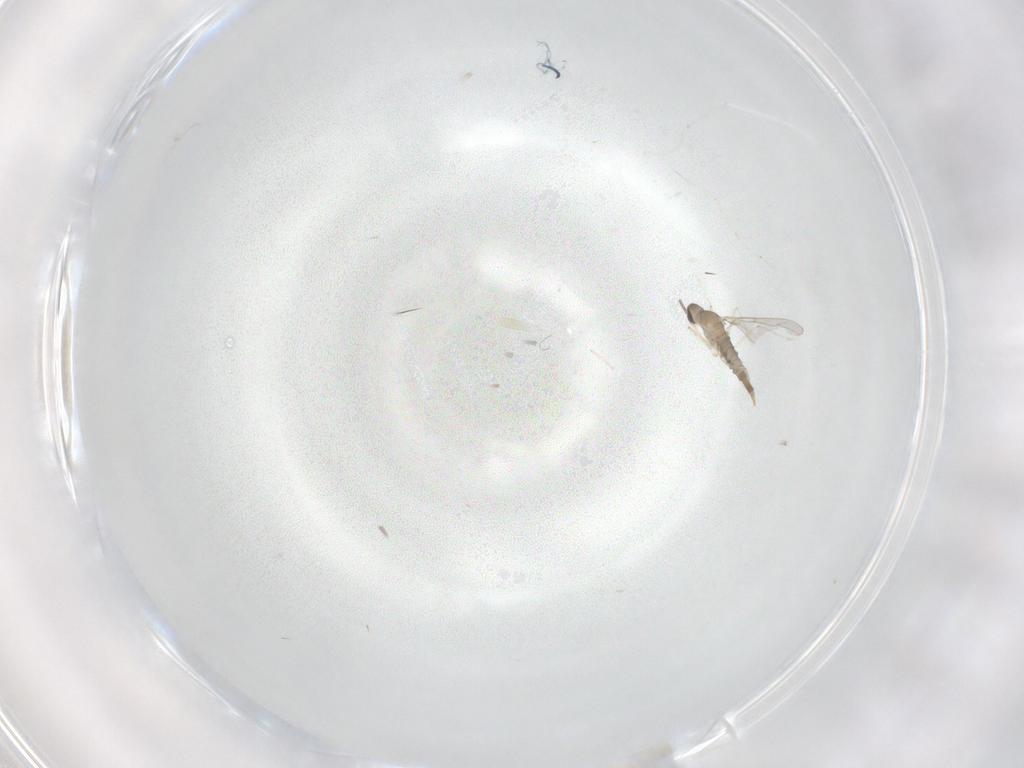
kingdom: Animalia
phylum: Arthropoda
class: Insecta
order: Diptera
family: Cecidomyiidae
